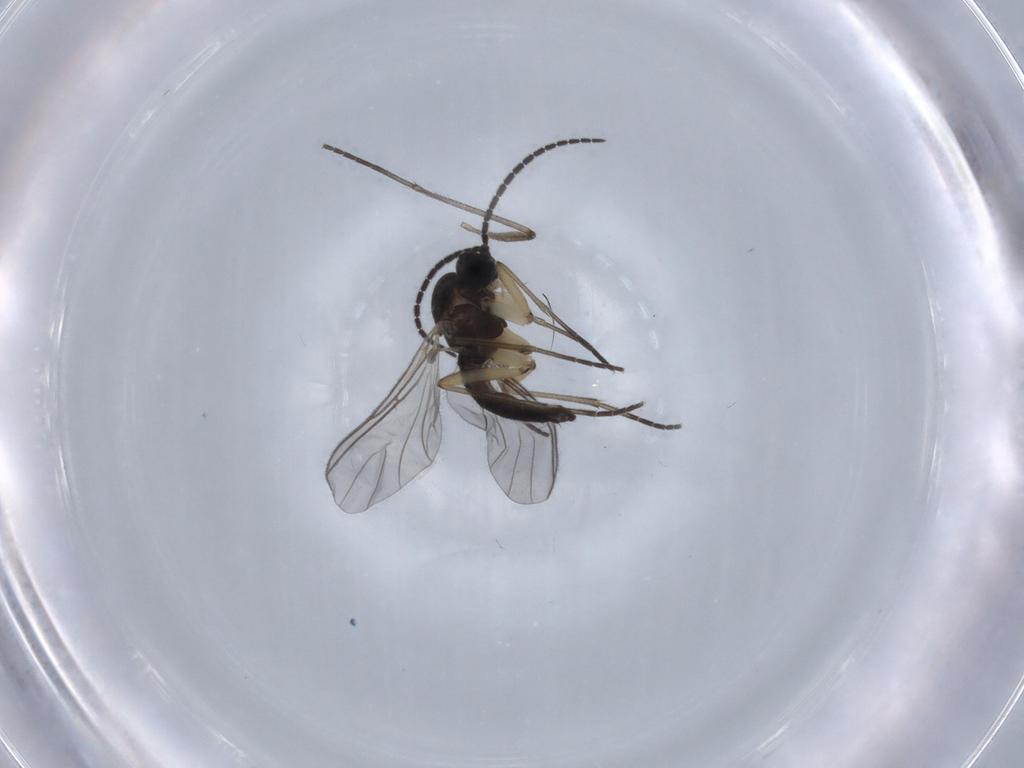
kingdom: Animalia
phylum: Arthropoda
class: Insecta
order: Diptera
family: Sciaridae
